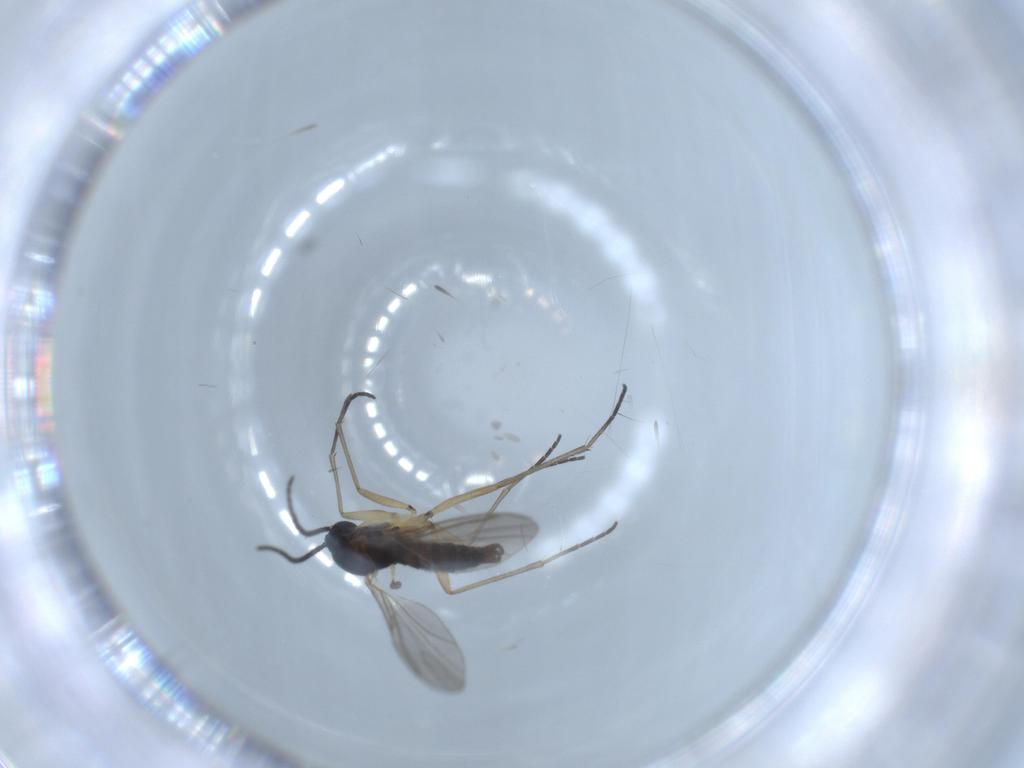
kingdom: Animalia
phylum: Arthropoda
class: Insecta
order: Diptera
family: Sciaridae
